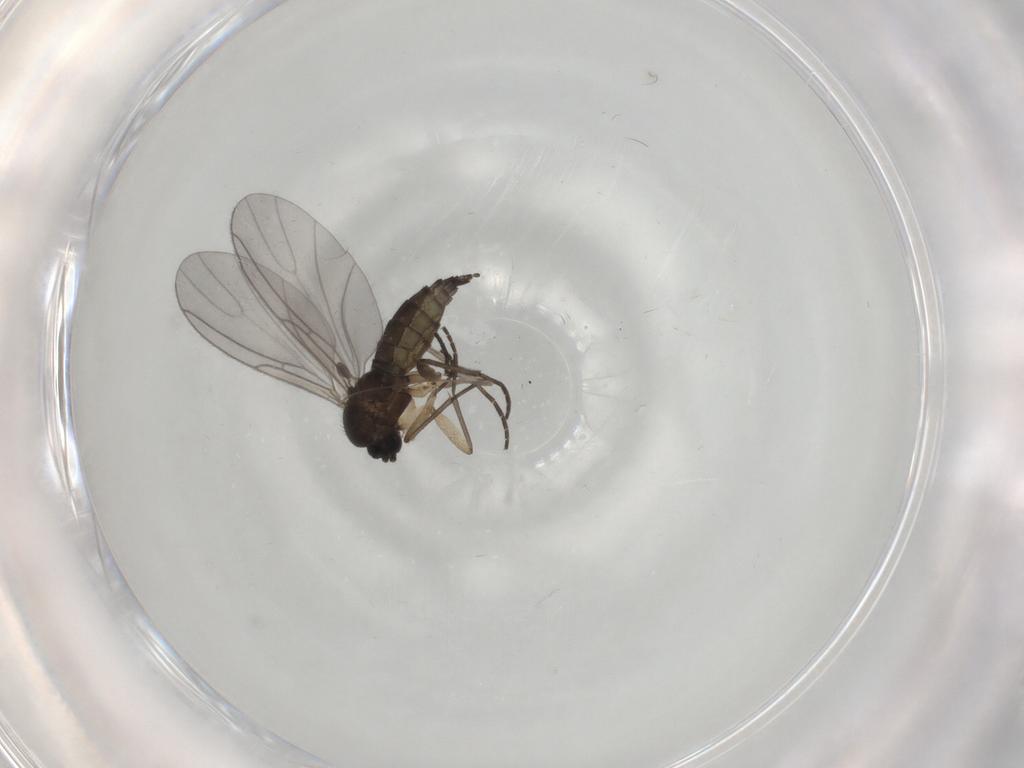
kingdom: Animalia
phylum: Arthropoda
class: Insecta
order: Diptera
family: Sciaridae
